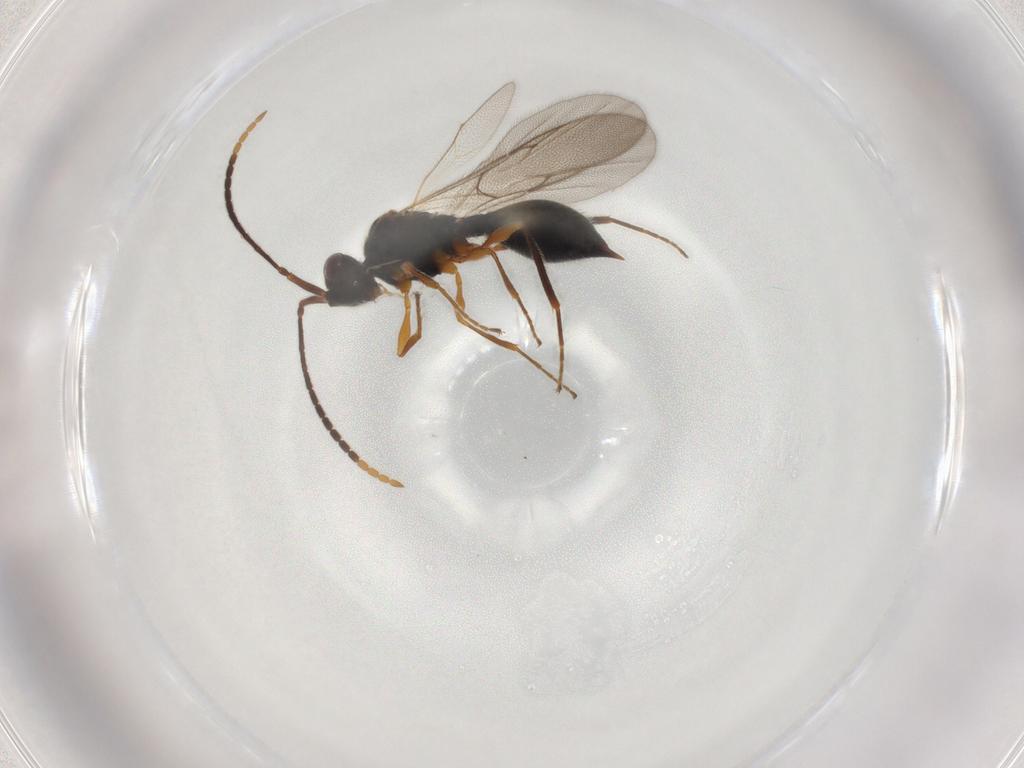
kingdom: Animalia
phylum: Arthropoda
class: Insecta
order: Hymenoptera
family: Diapriidae
